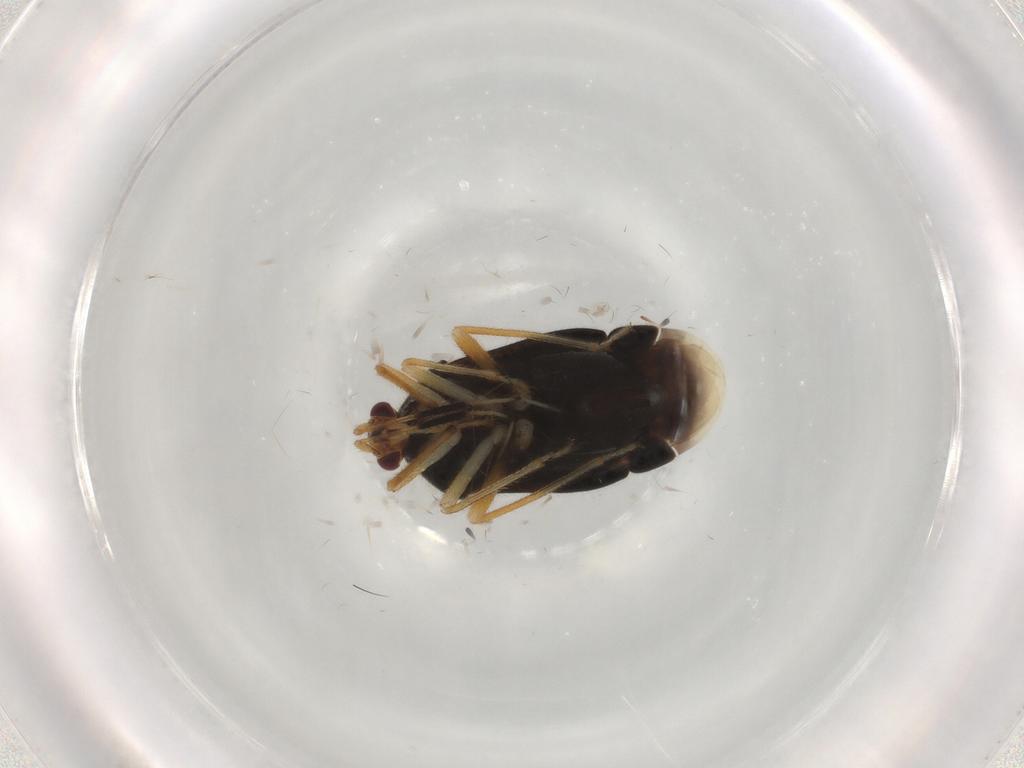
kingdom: Animalia
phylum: Arthropoda
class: Insecta
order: Hemiptera
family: Miridae
